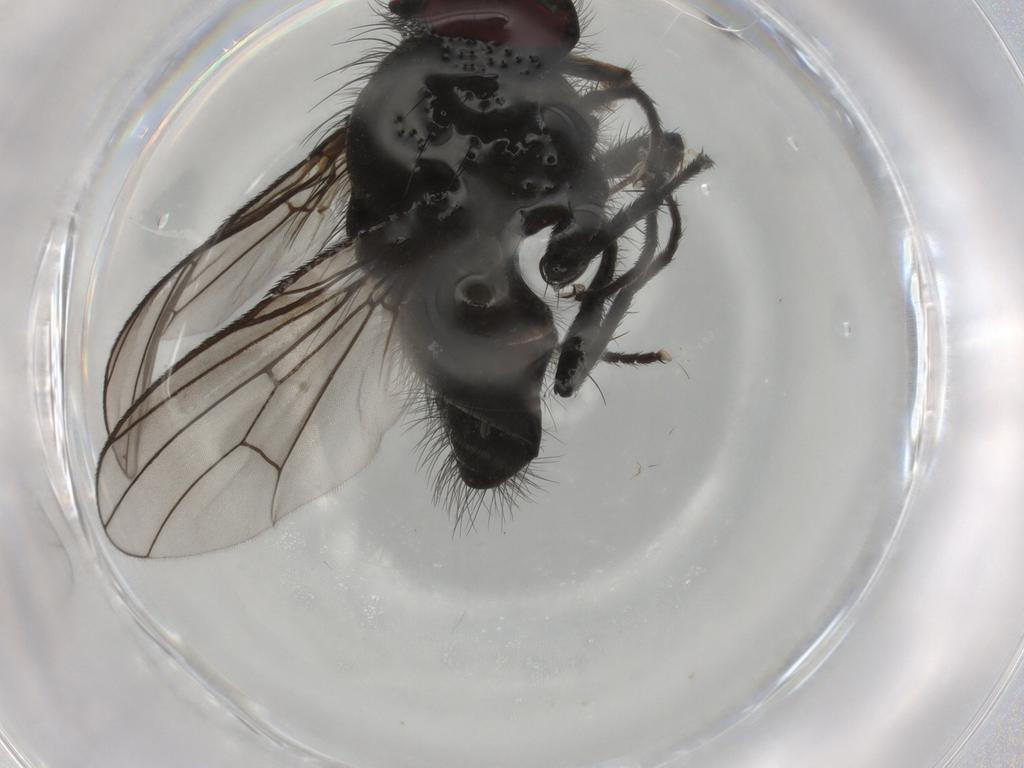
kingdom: Animalia
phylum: Arthropoda
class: Insecta
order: Diptera
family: Muscidae
